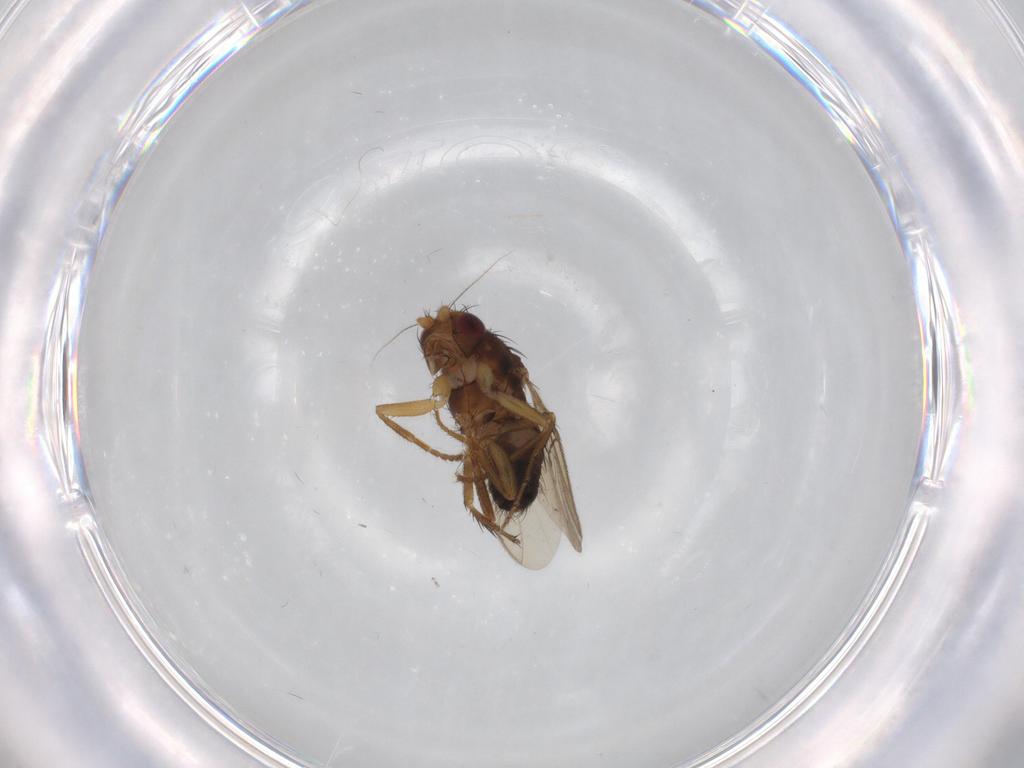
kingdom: Animalia
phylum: Arthropoda
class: Insecta
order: Diptera
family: Sphaeroceridae
